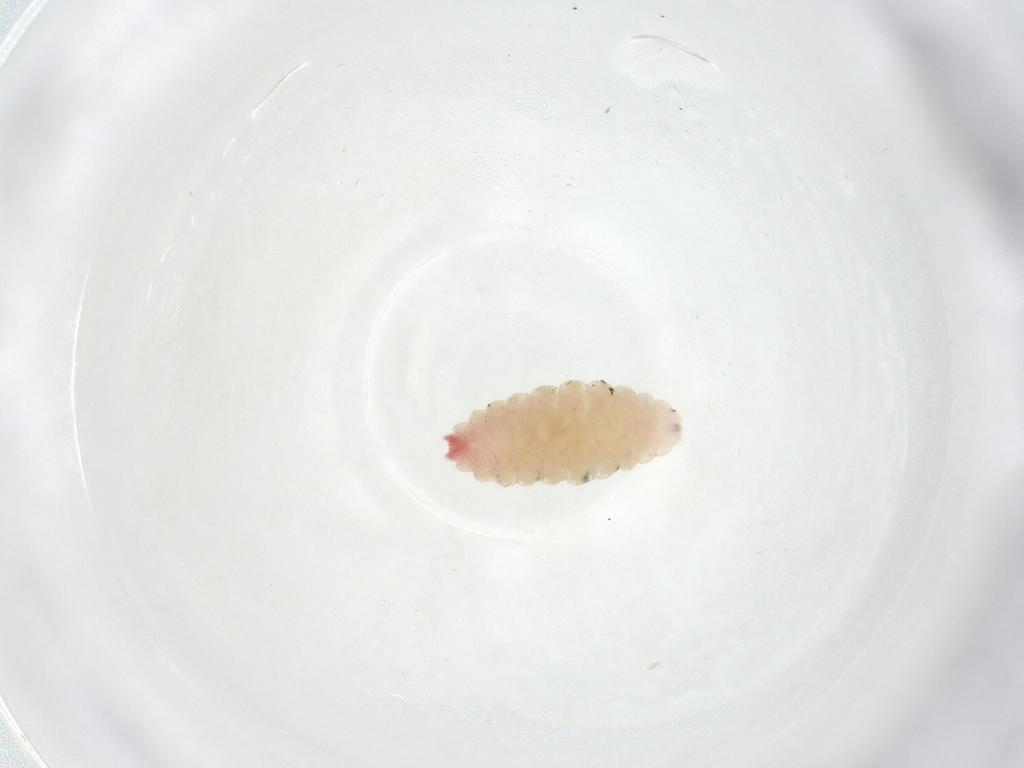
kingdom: Animalia
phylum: Arthropoda
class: Insecta
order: Diptera
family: Cecidomyiidae
